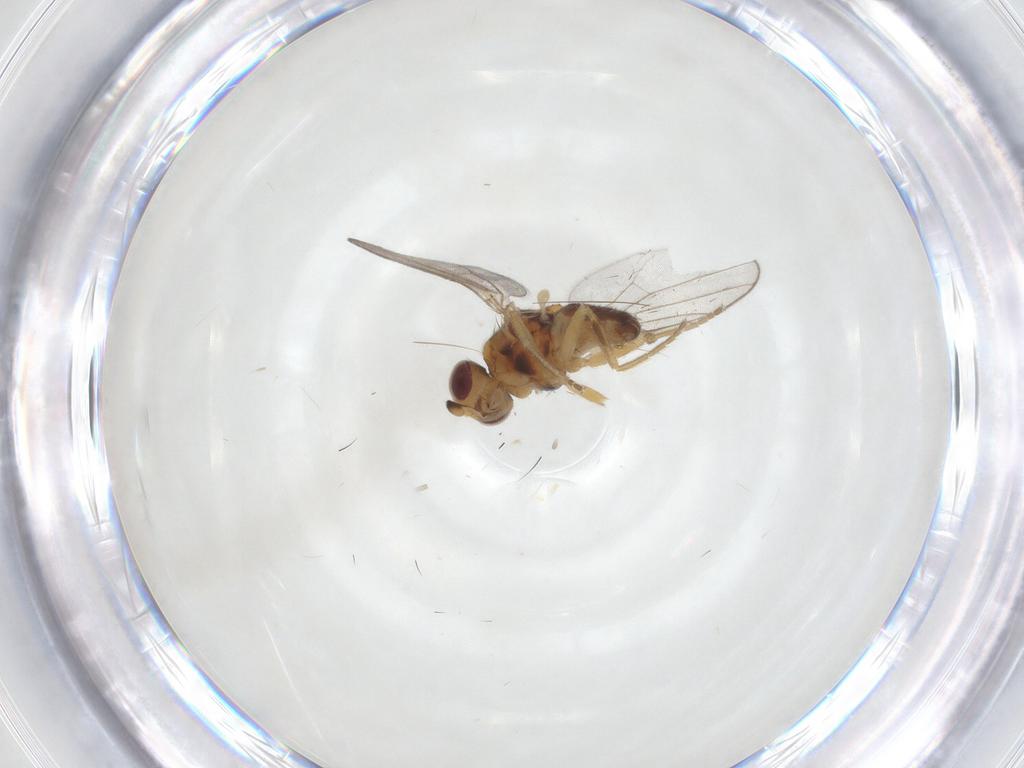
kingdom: Animalia
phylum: Arthropoda
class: Insecta
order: Diptera
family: Chloropidae
